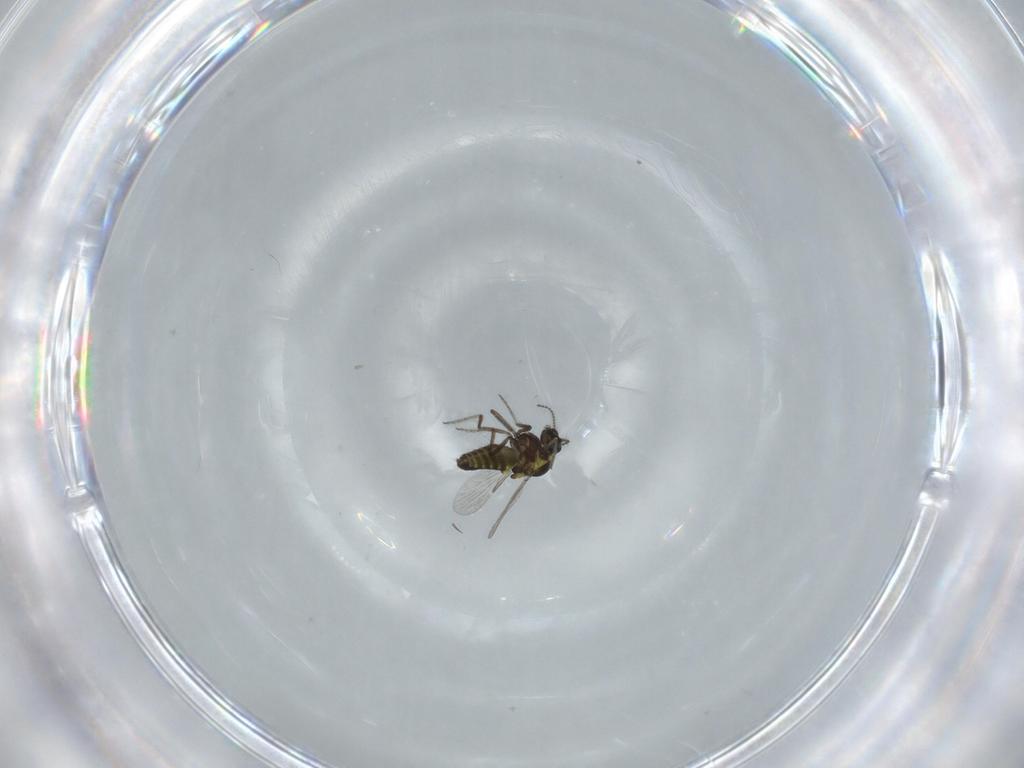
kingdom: Animalia
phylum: Arthropoda
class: Insecta
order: Diptera
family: Ceratopogonidae
